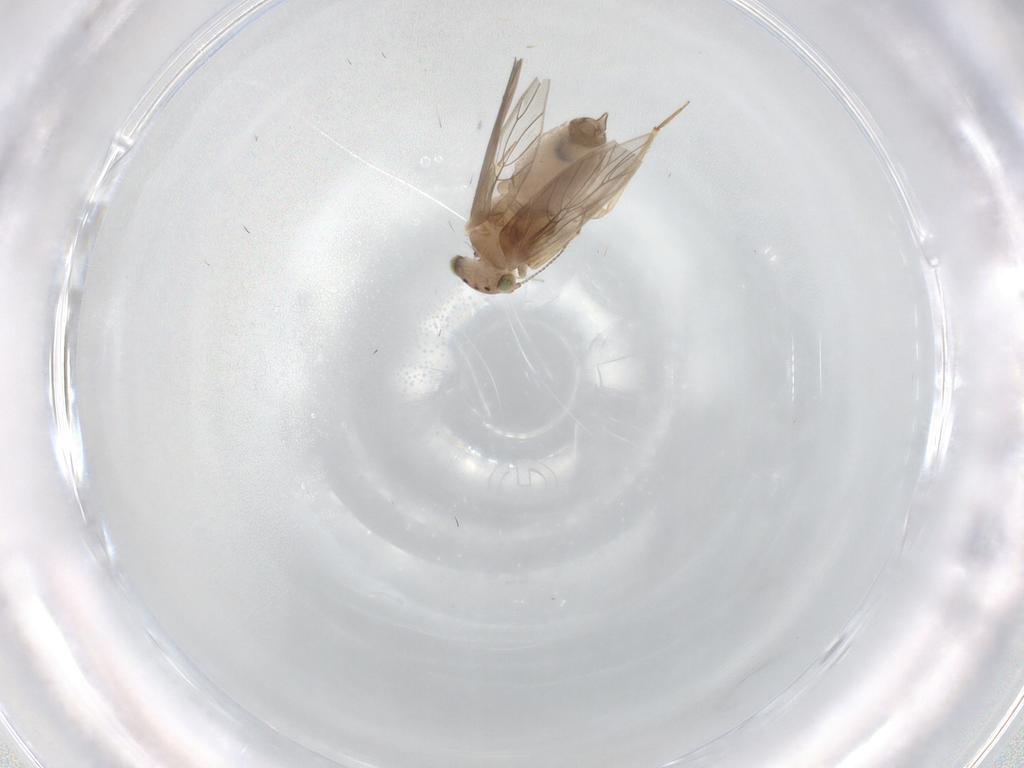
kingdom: Animalia
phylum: Arthropoda
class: Insecta
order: Psocodea
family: Lepidopsocidae
